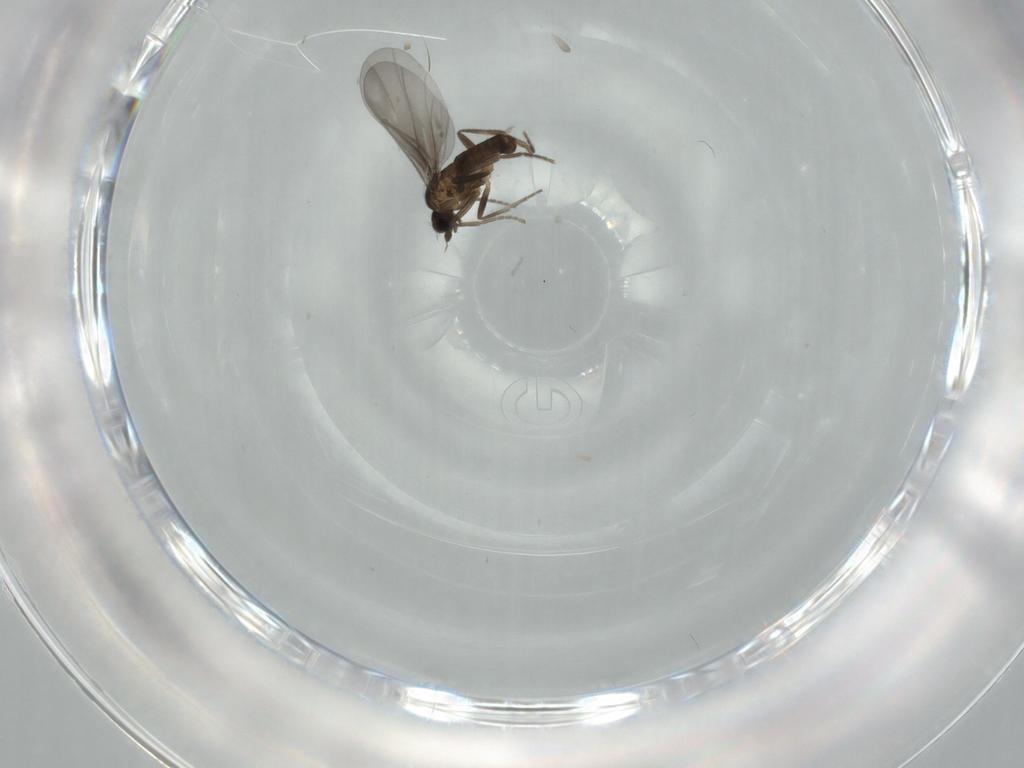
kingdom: Animalia
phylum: Arthropoda
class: Insecta
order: Diptera
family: Phoridae
